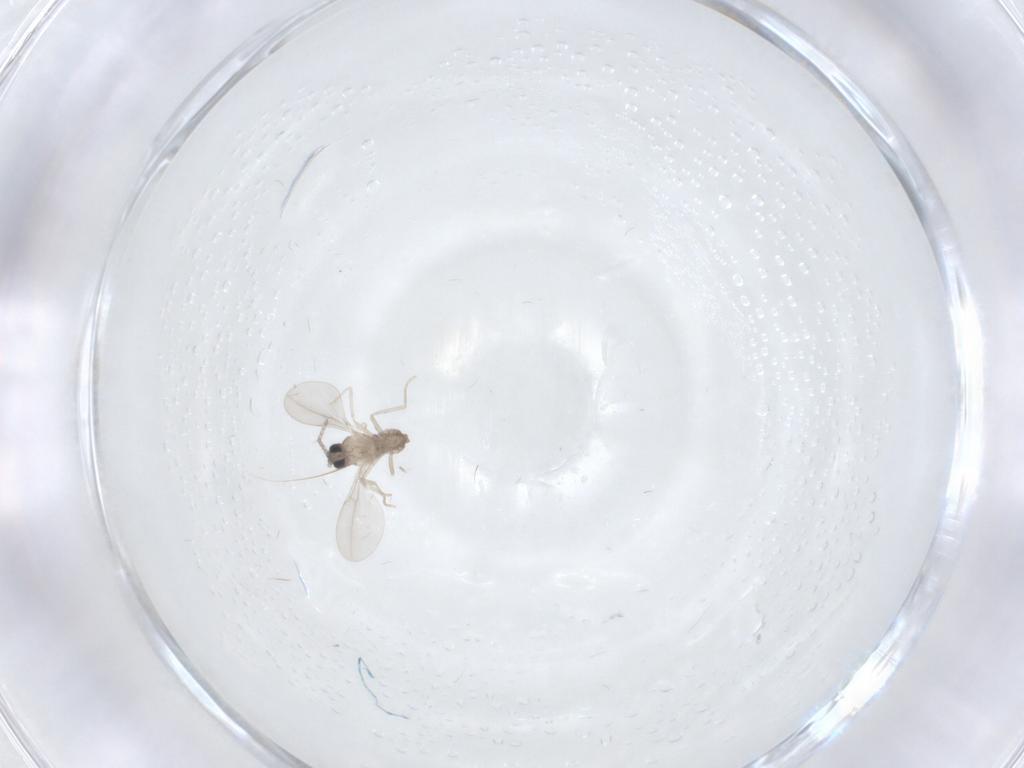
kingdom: Animalia
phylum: Arthropoda
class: Insecta
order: Diptera
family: Cecidomyiidae
